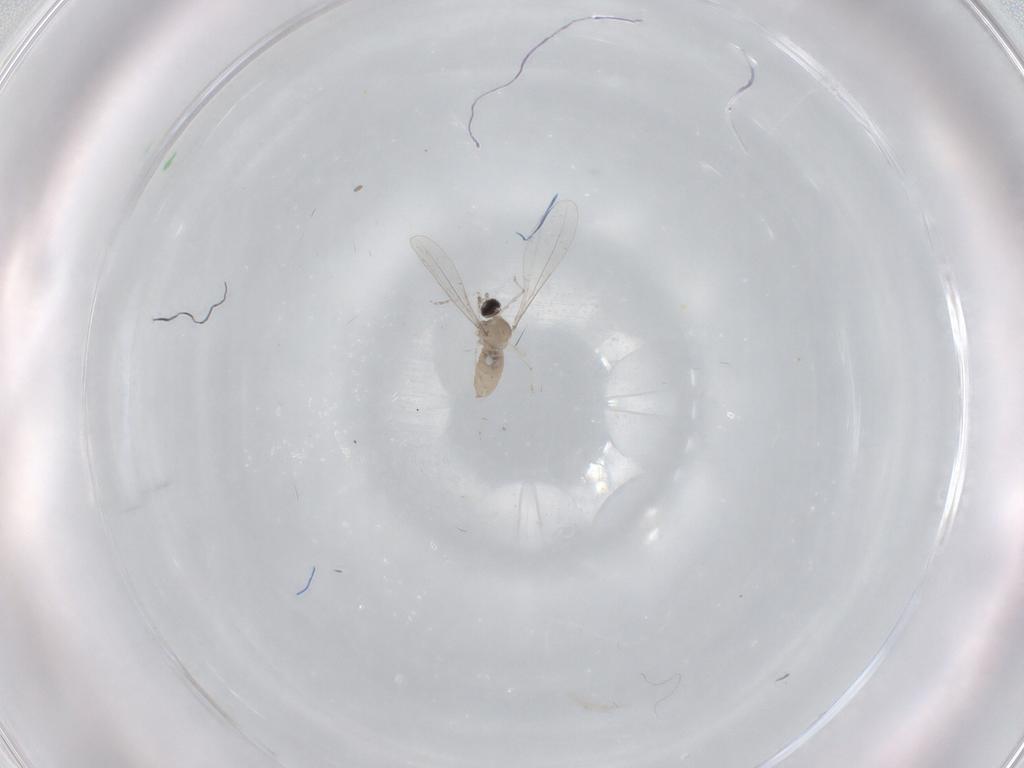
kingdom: Animalia
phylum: Arthropoda
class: Insecta
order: Diptera
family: Cecidomyiidae
